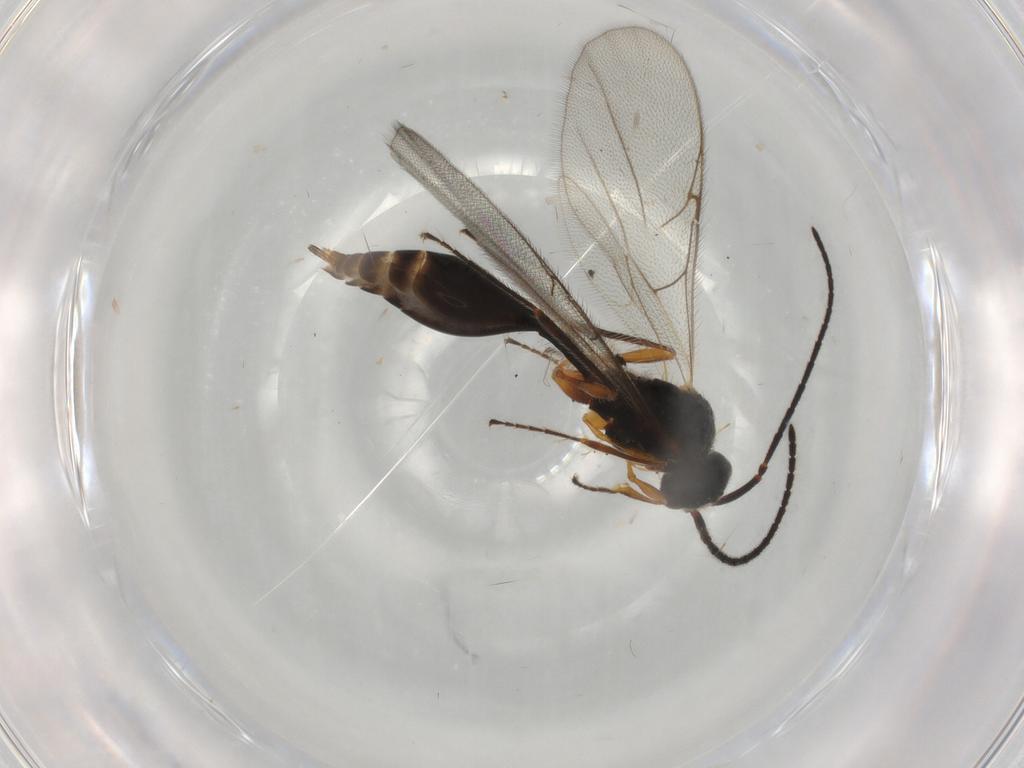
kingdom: Animalia
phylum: Arthropoda
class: Insecta
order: Hymenoptera
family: Diapriidae
